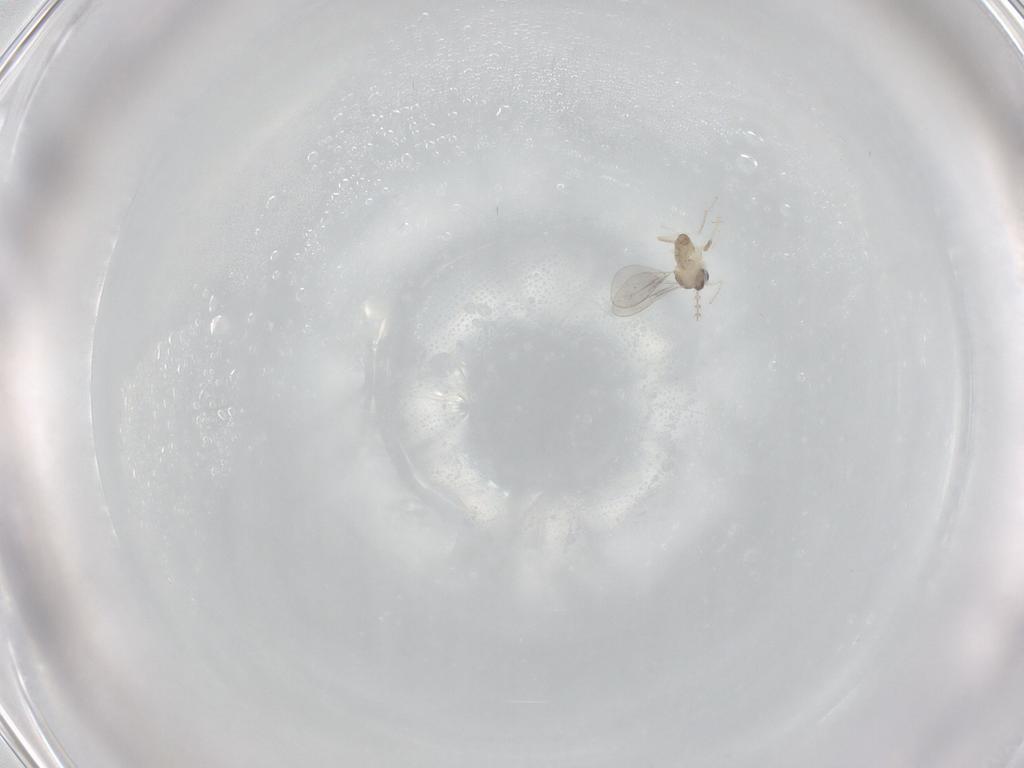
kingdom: Animalia
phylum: Arthropoda
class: Insecta
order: Diptera
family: Cecidomyiidae
